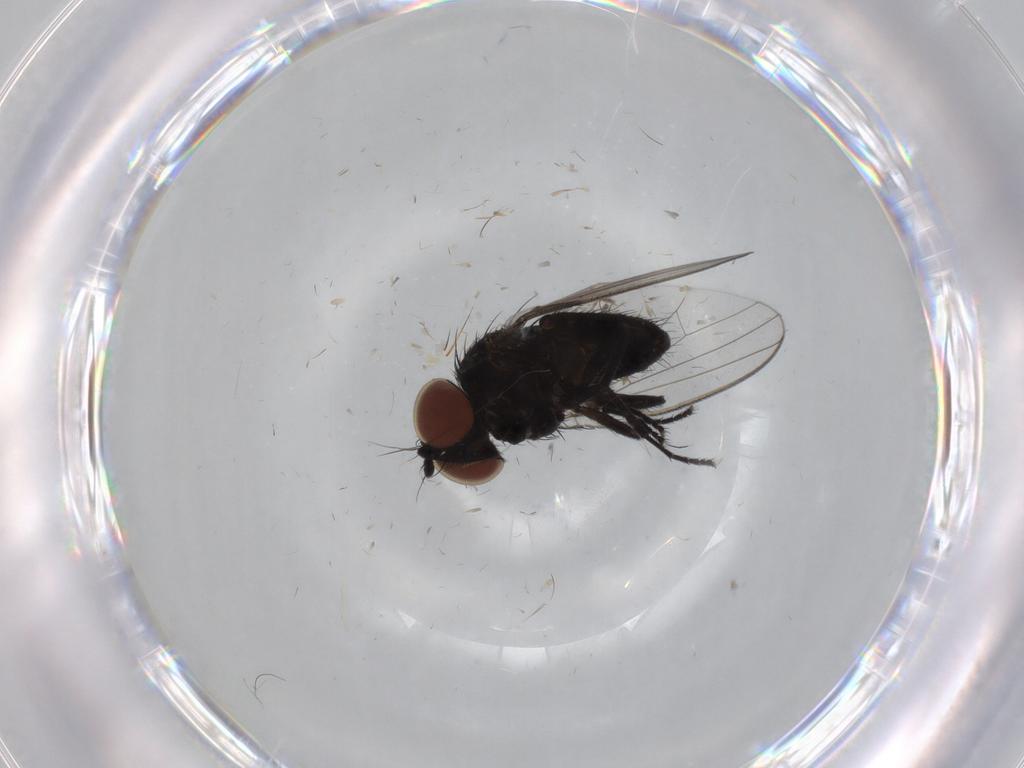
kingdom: Animalia
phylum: Arthropoda
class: Insecta
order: Diptera
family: Milichiidae
